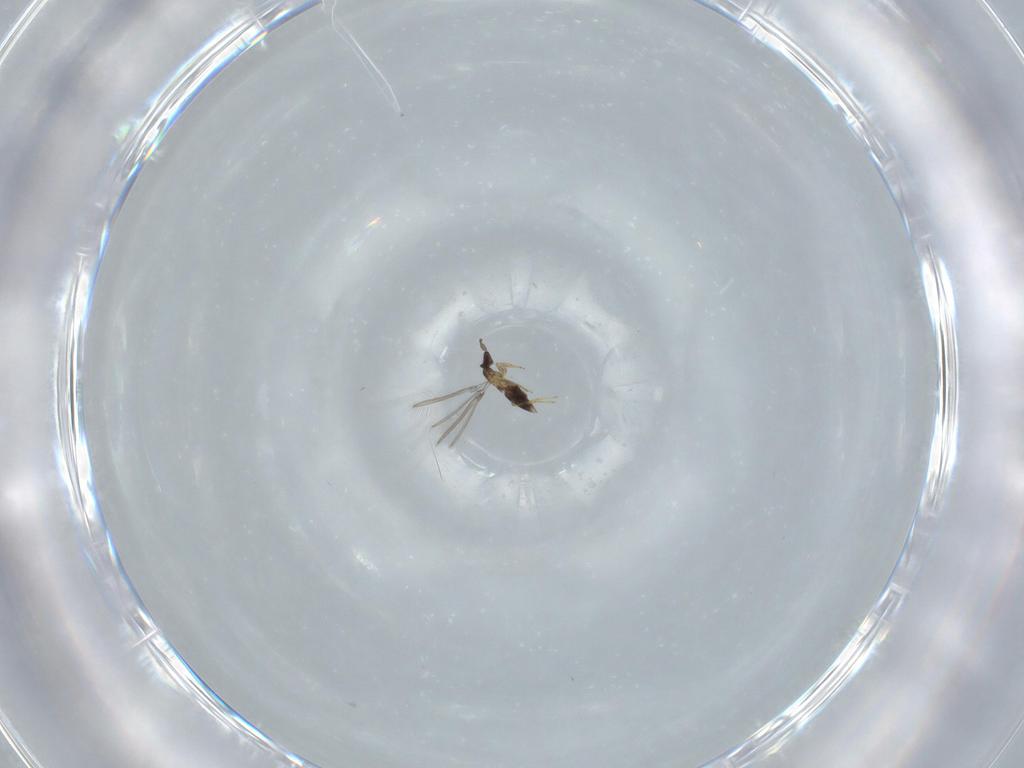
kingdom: Animalia
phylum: Arthropoda
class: Insecta
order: Hymenoptera
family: Mymaridae
